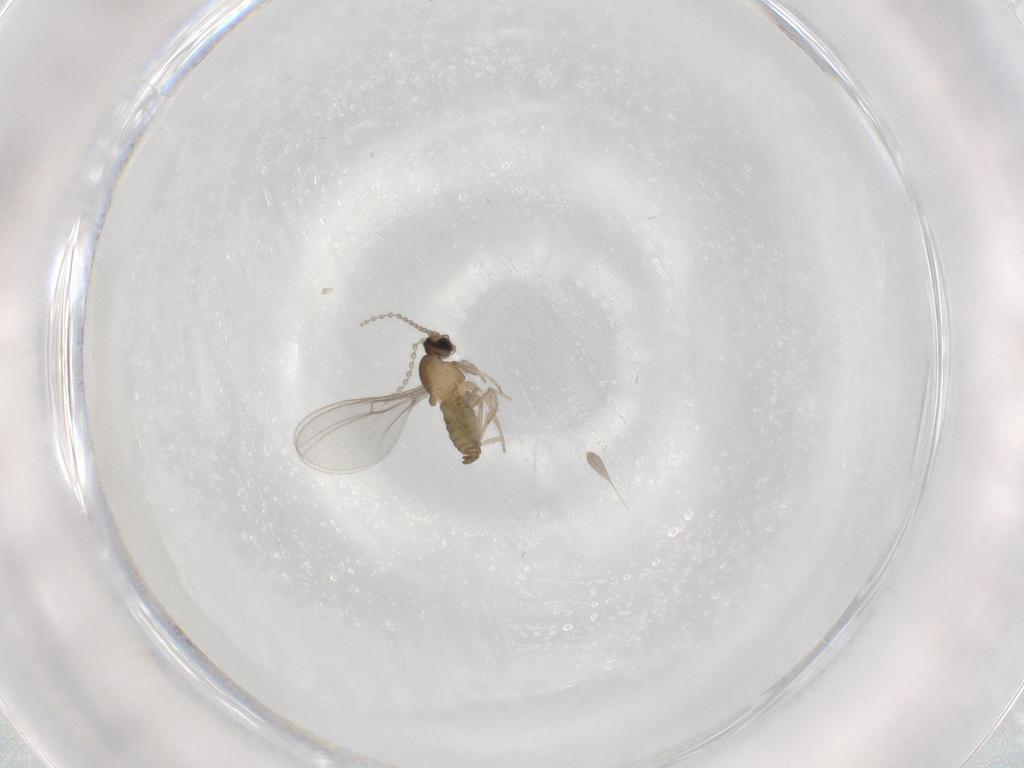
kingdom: Animalia
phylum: Arthropoda
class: Insecta
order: Diptera
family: Cecidomyiidae
